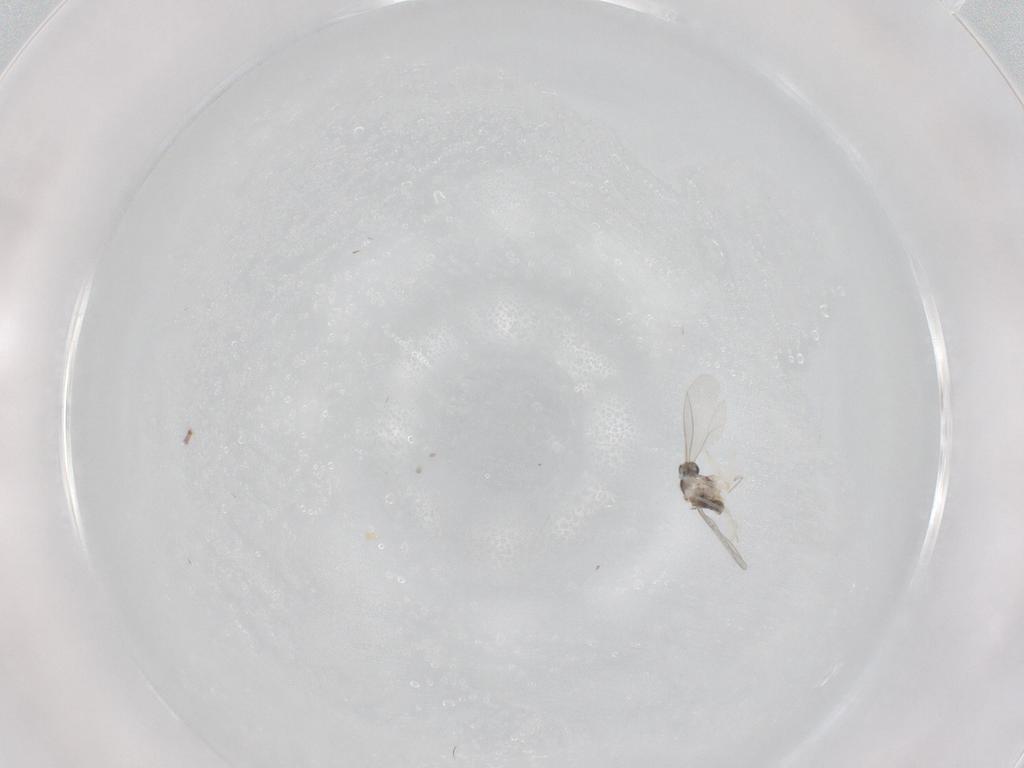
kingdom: Animalia
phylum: Arthropoda
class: Insecta
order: Diptera
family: Cecidomyiidae
